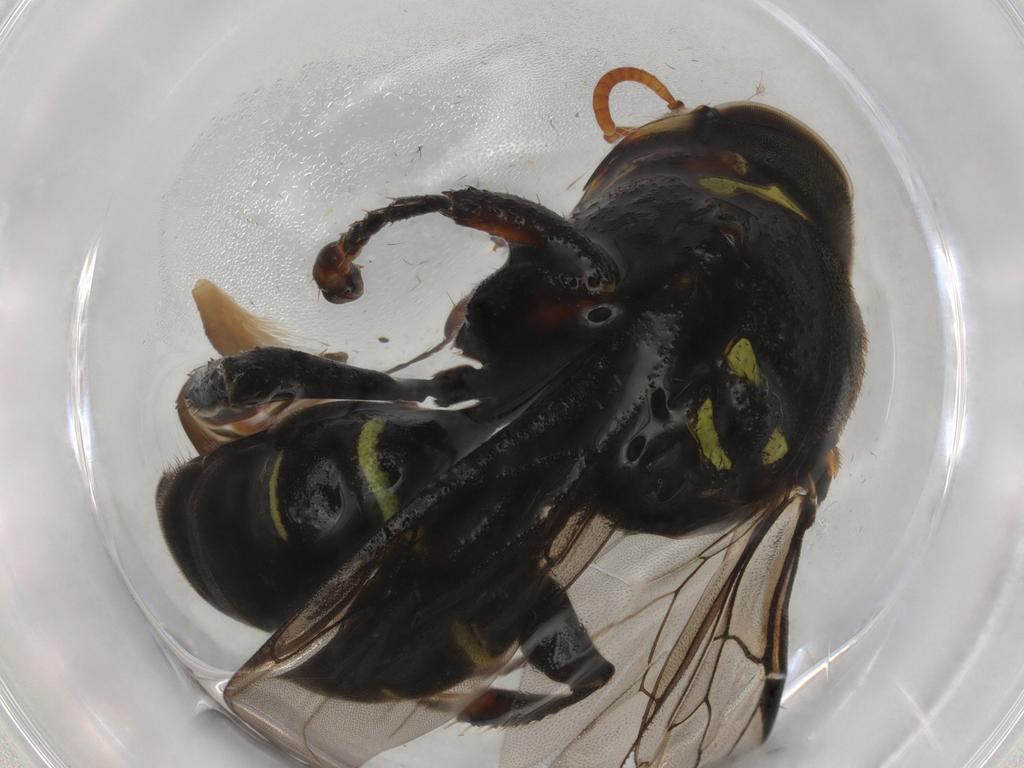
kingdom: Animalia
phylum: Arthropoda
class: Insecta
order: Hymenoptera
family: Crabronidae
